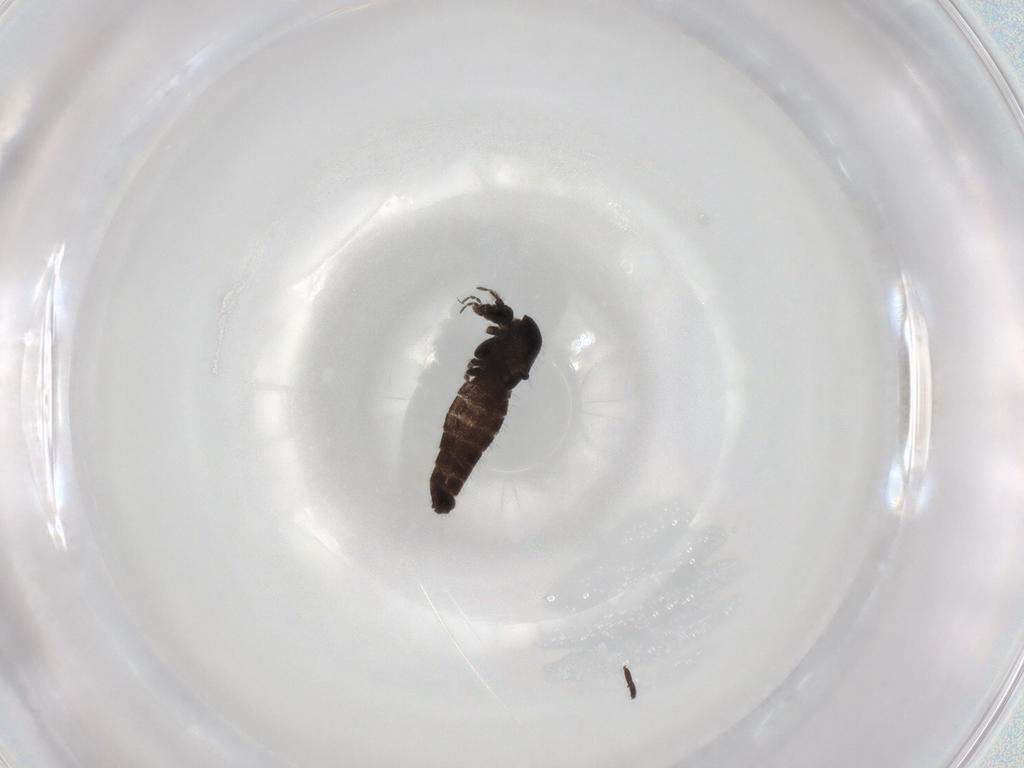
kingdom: Animalia
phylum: Arthropoda
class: Insecta
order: Diptera
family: Chironomidae
